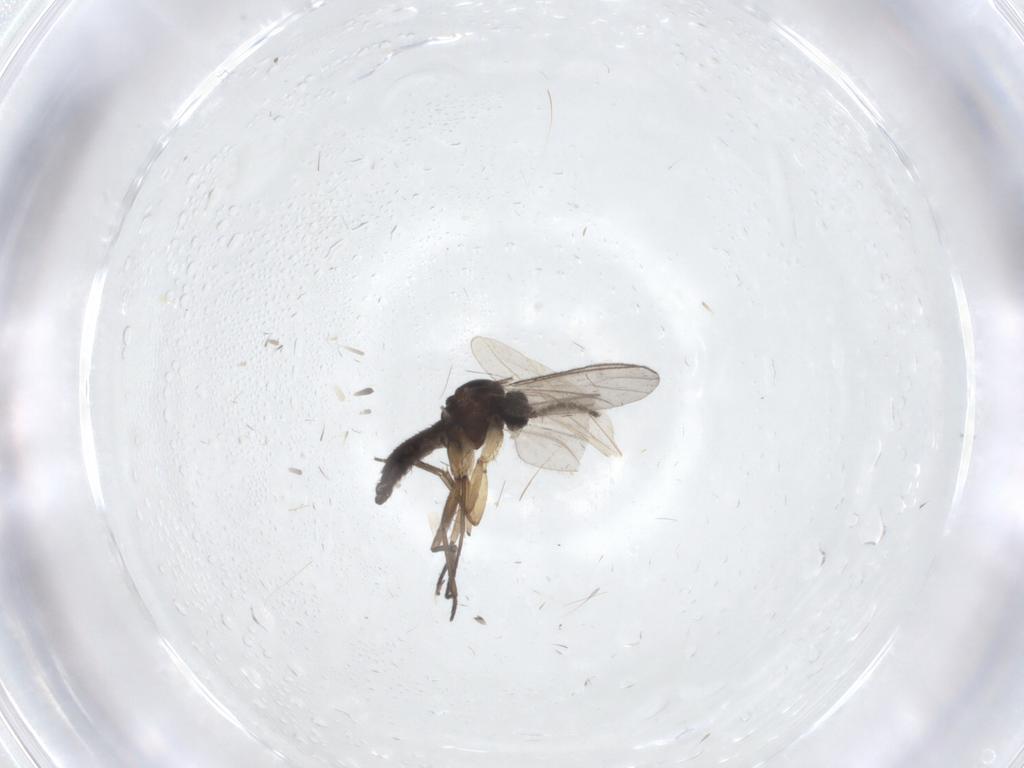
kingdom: Animalia
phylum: Arthropoda
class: Insecta
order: Diptera
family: Sciaridae
